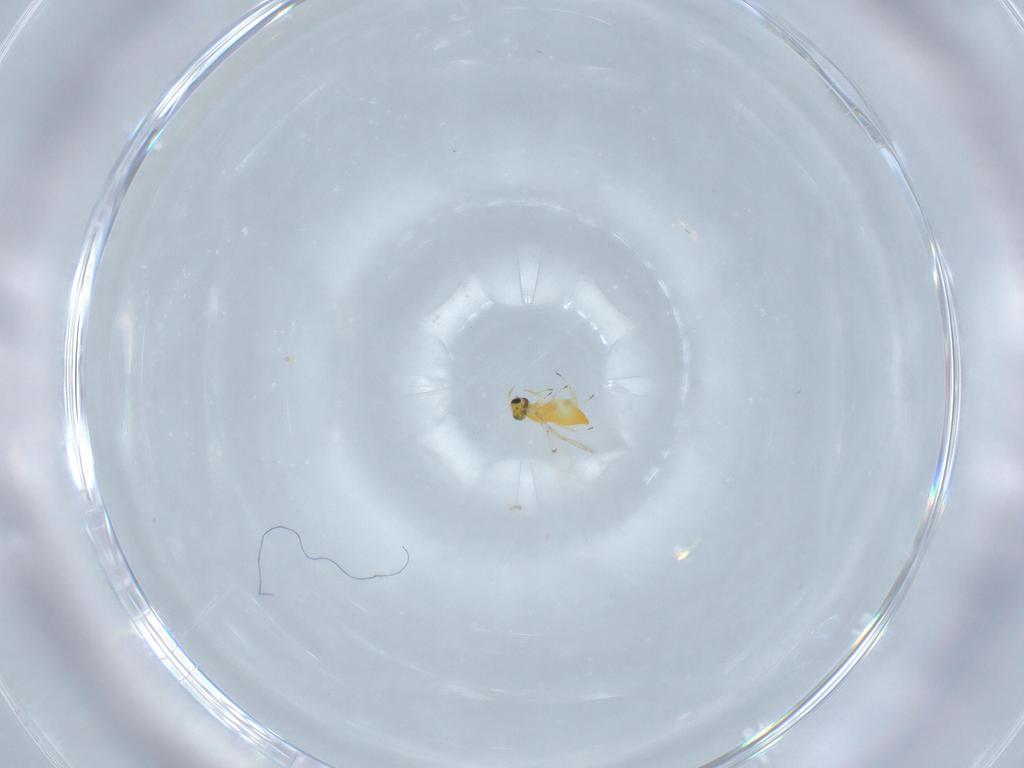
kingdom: Animalia
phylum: Arthropoda
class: Insecta
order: Hymenoptera
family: Trichogrammatidae
